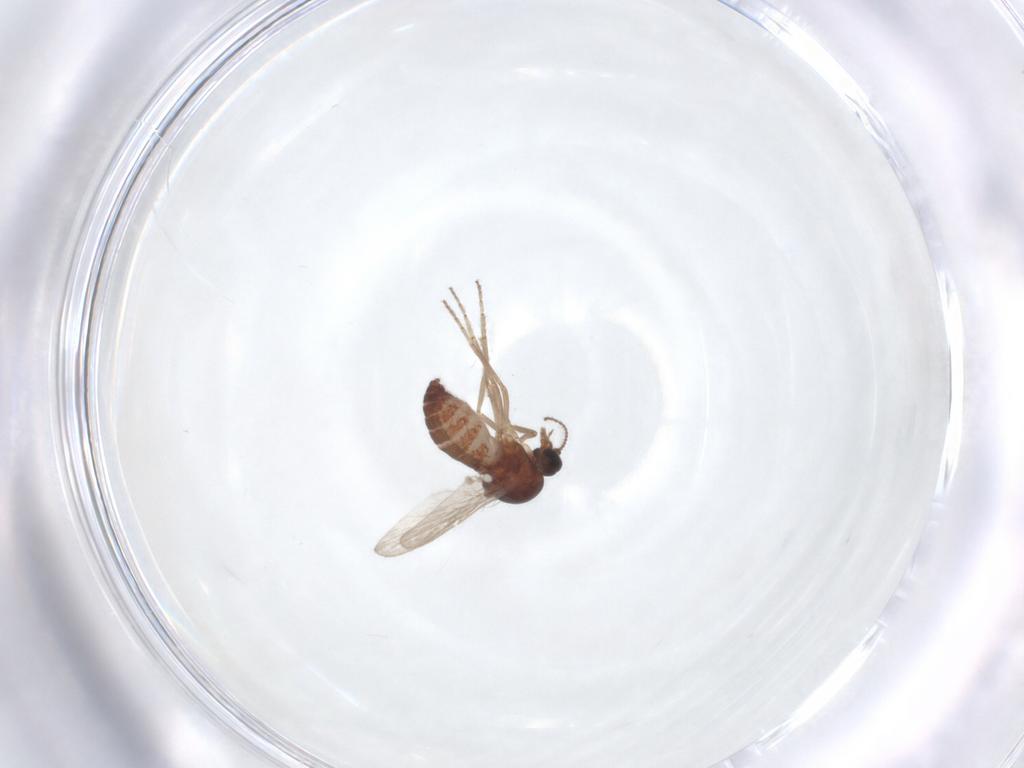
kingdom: Animalia
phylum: Arthropoda
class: Insecta
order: Diptera
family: Ceratopogonidae
